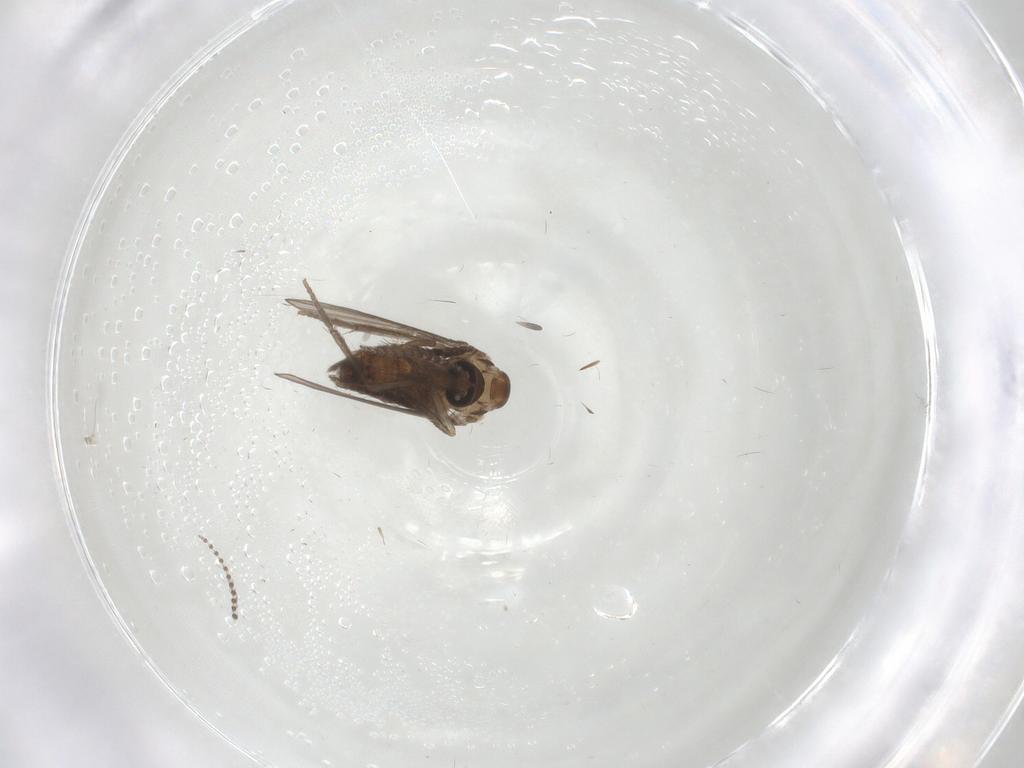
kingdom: Animalia
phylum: Arthropoda
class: Insecta
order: Diptera
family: Psychodidae
